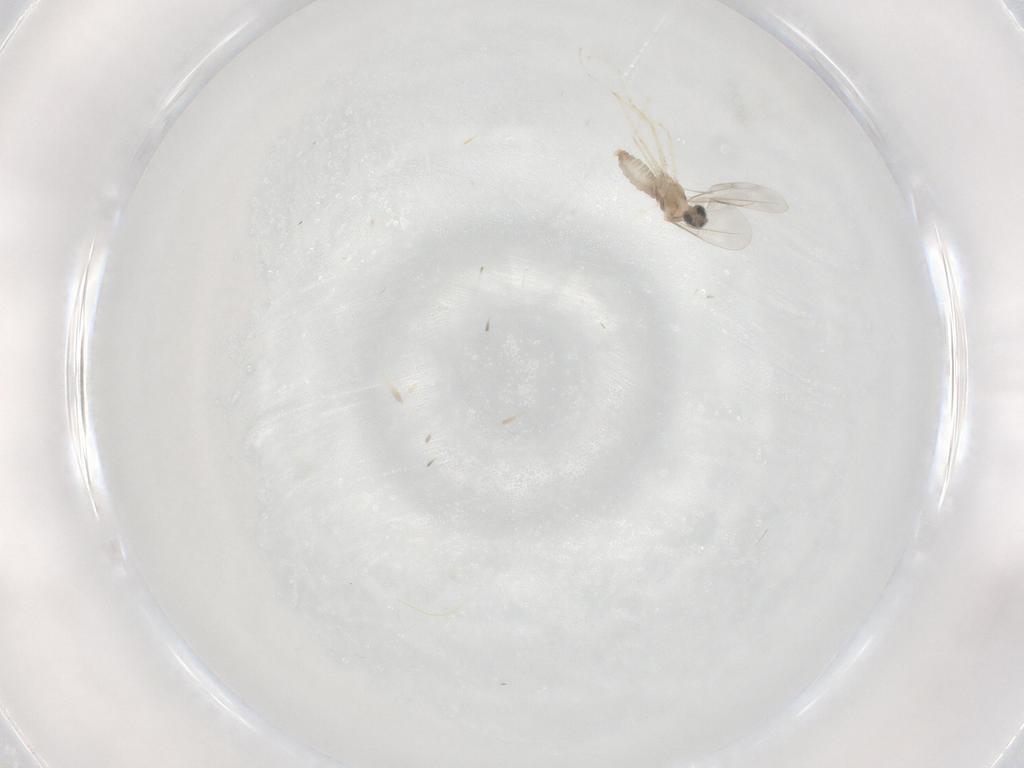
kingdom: Animalia
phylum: Arthropoda
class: Insecta
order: Diptera
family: Cecidomyiidae
